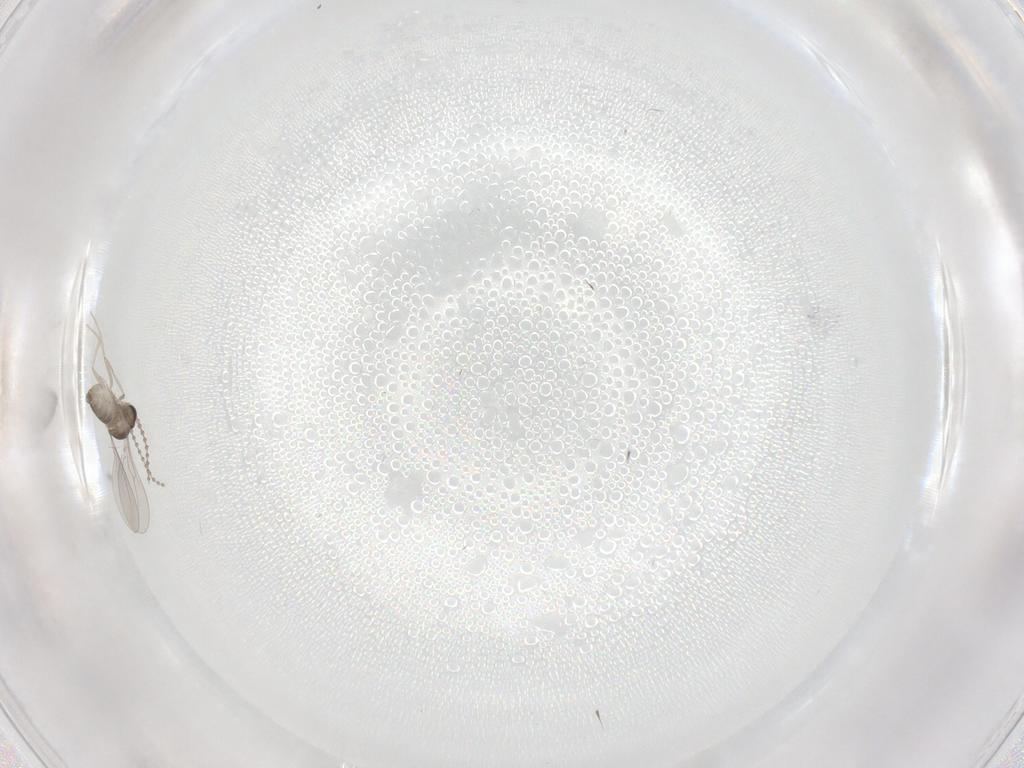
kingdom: Animalia
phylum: Arthropoda
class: Insecta
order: Diptera
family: Cecidomyiidae
